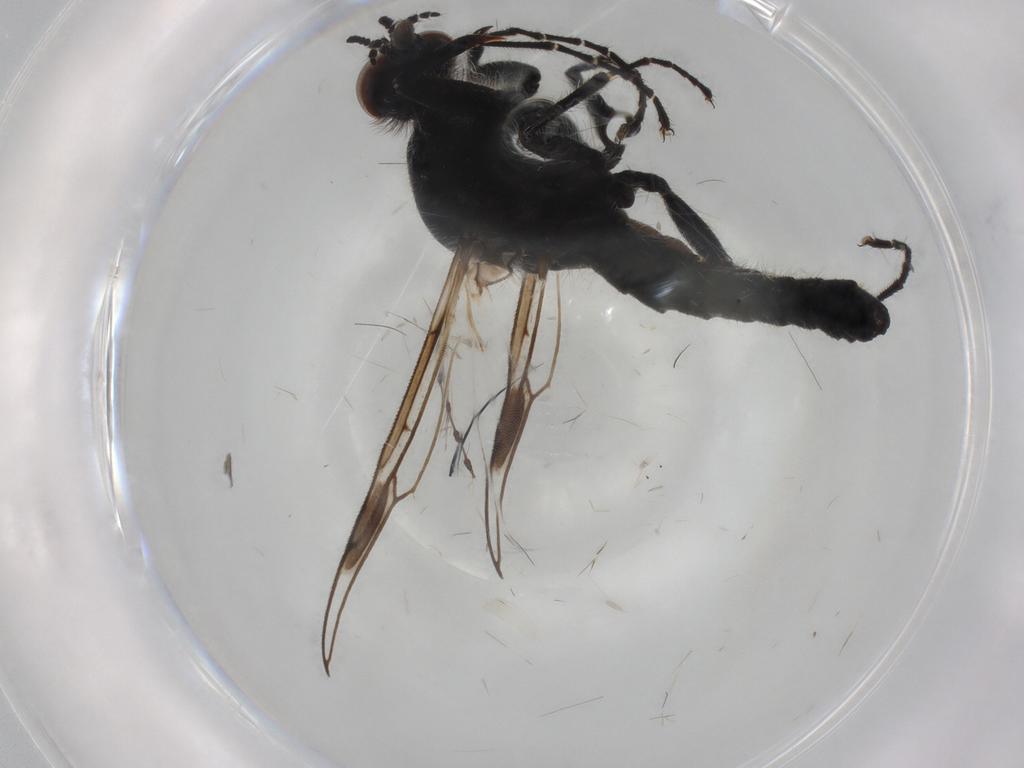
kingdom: Animalia
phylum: Arthropoda
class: Insecta
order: Diptera
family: Bibionidae
